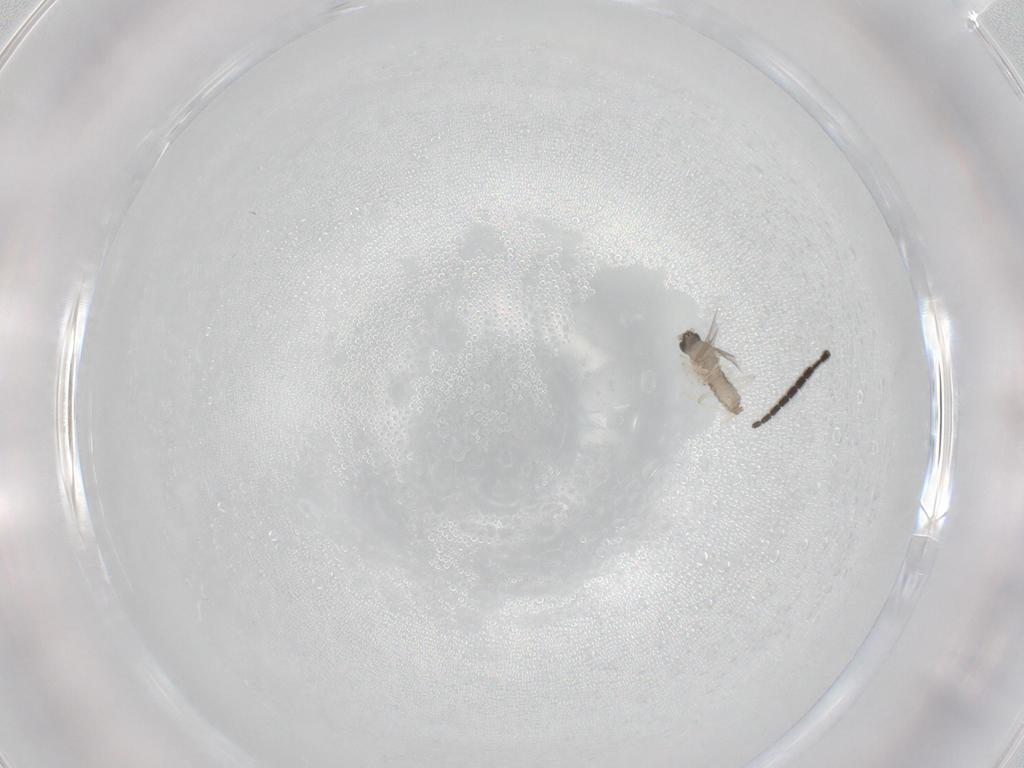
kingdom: Animalia
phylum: Arthropoda
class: Insecta
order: Diptera
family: Cecidomyiidae
